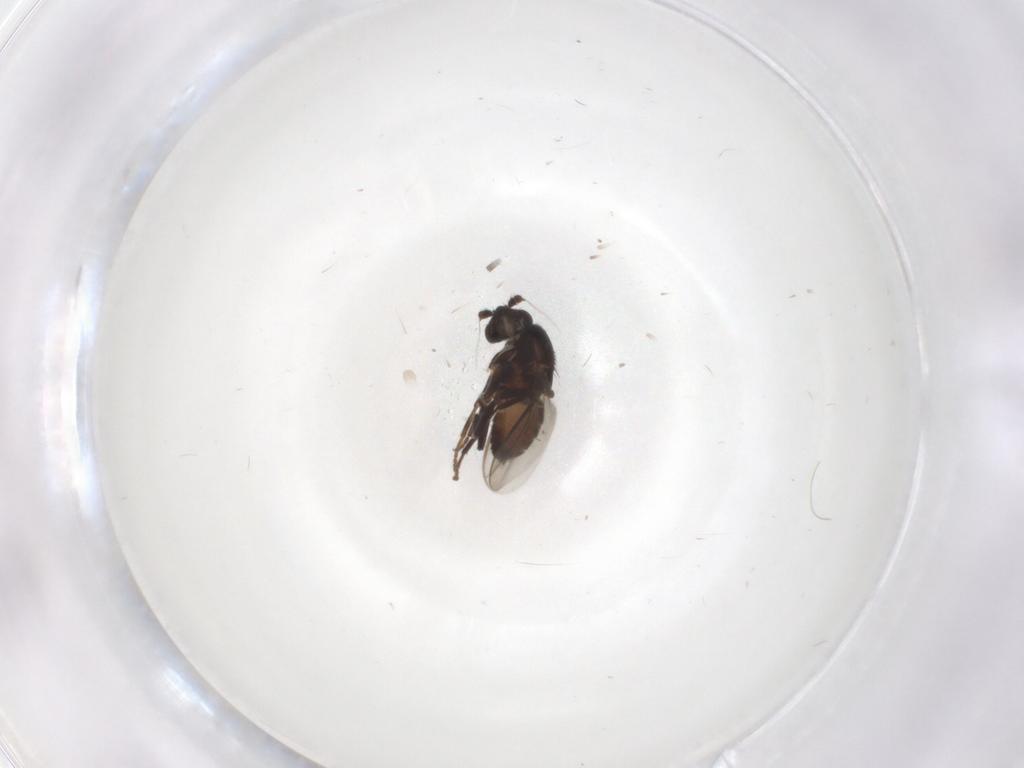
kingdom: Animalia
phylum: Arthropoda
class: Insecta
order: Diptera
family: Sphaeroceridae
